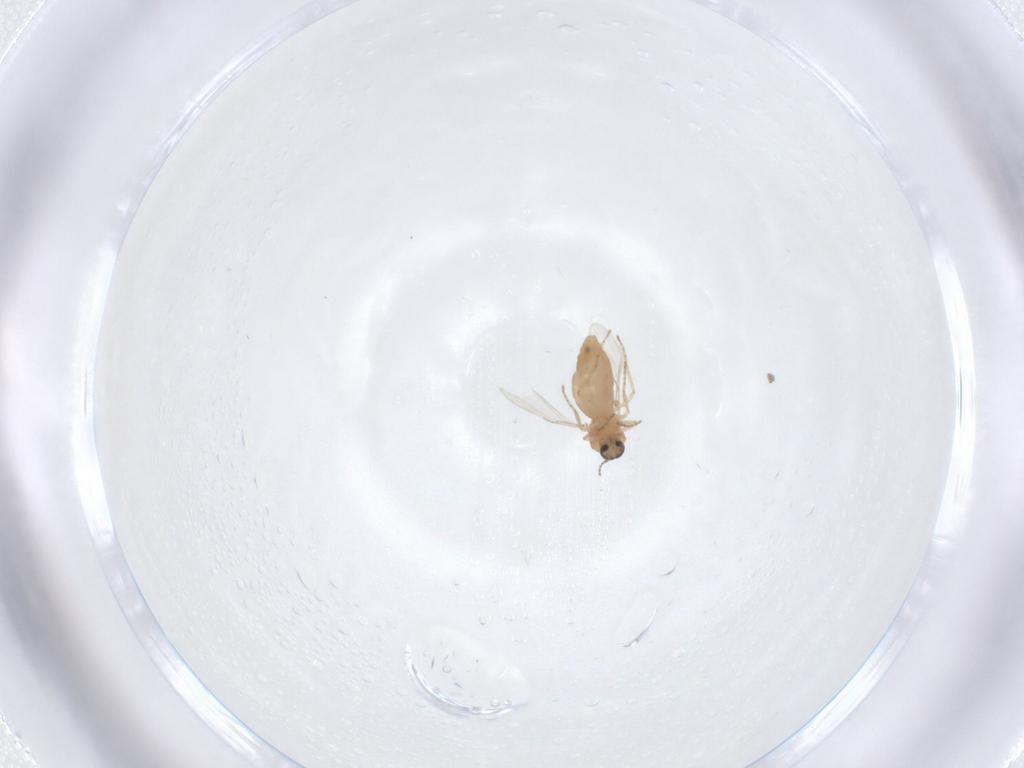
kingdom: Animalia
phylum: Arthropoda
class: Insecta
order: Diptera
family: Ceratopogonidae
